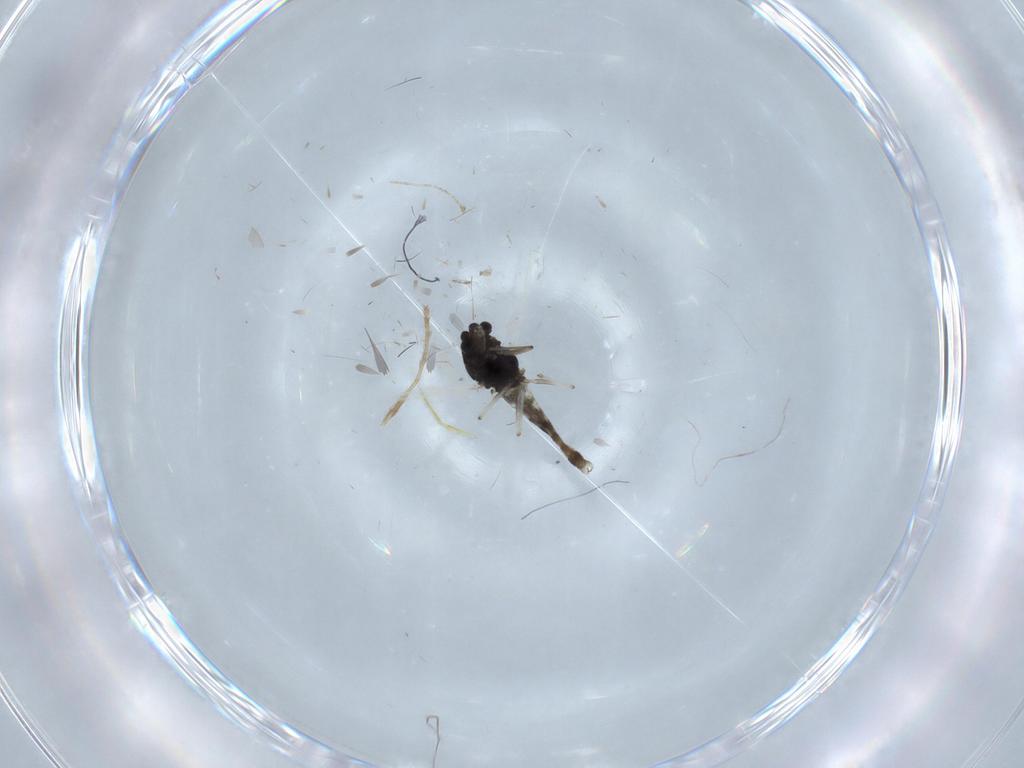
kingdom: Animalia
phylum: Arthropoda
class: Insecta
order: Diptera
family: Chironomidae
